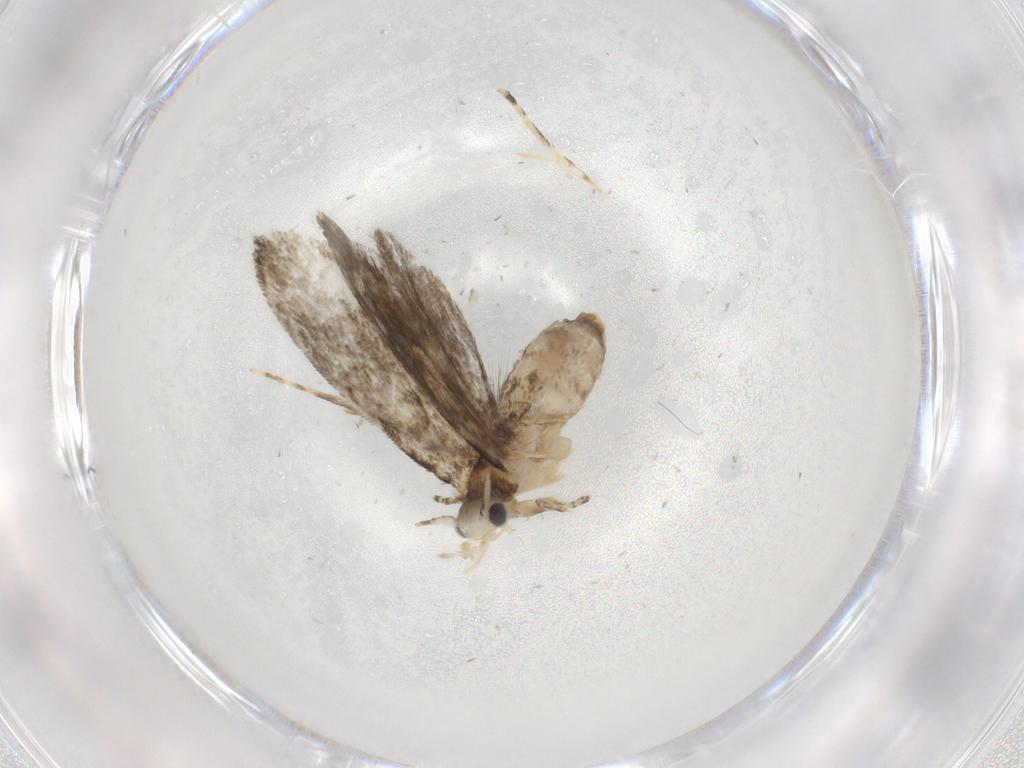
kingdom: Animalia
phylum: Arthropoda
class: Insecta
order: Lepidoptera
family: Tineidae
